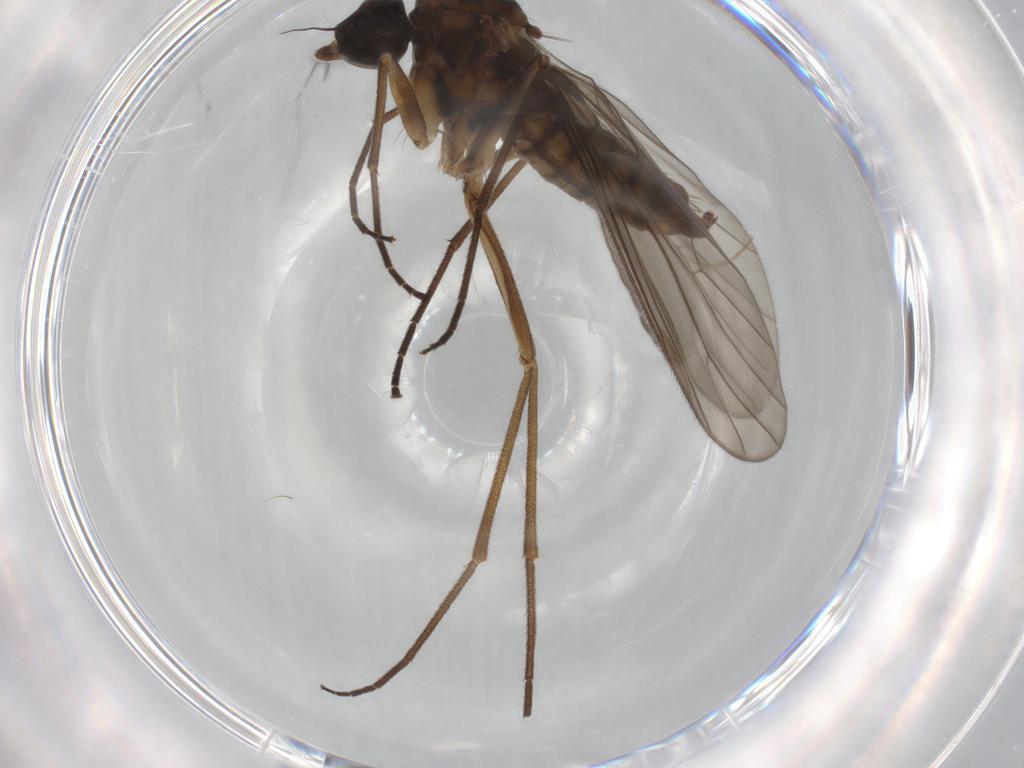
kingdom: Animalia
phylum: Arthropoda
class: Insecta
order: Diptera
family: Hybotidae
